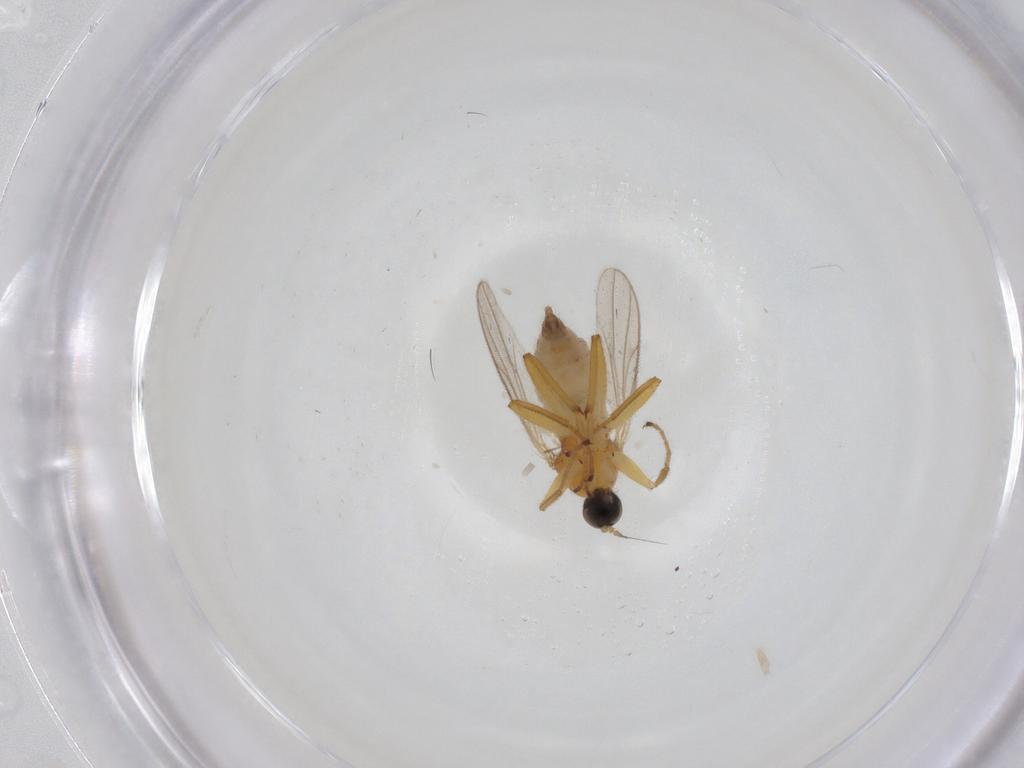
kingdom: Animalia
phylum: Arthropoda
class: Insecta
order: Diptera
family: Hybotidae
